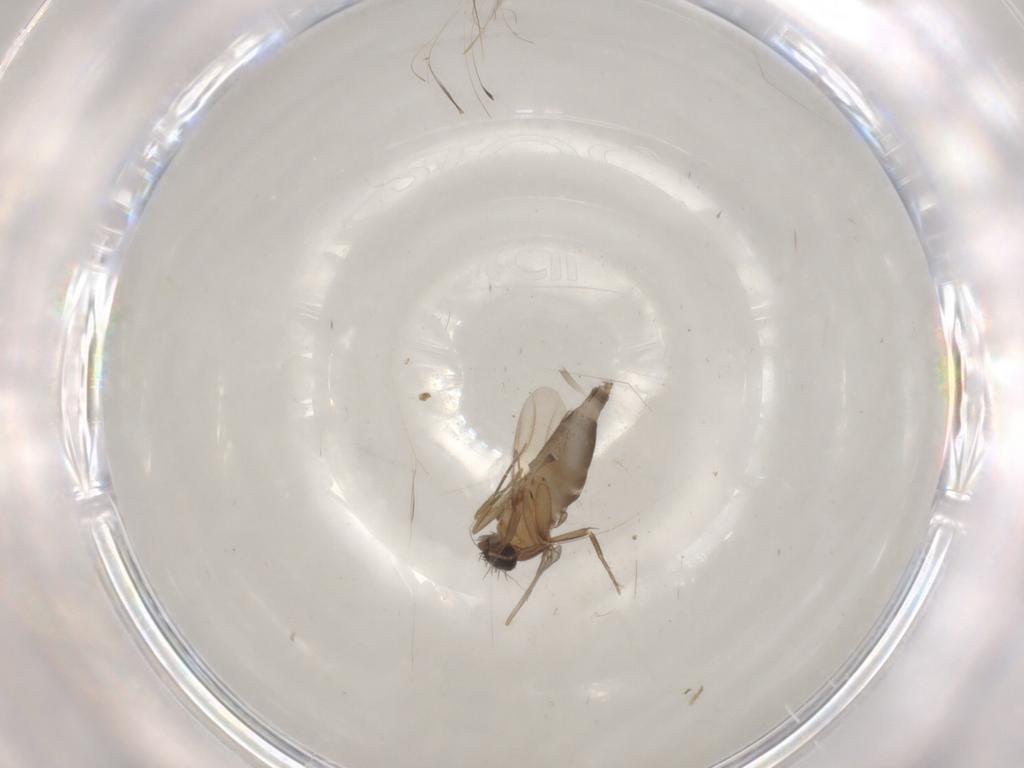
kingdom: Animalia
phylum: Arthropoda
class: Insecta
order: Diptera
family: Phoridae
